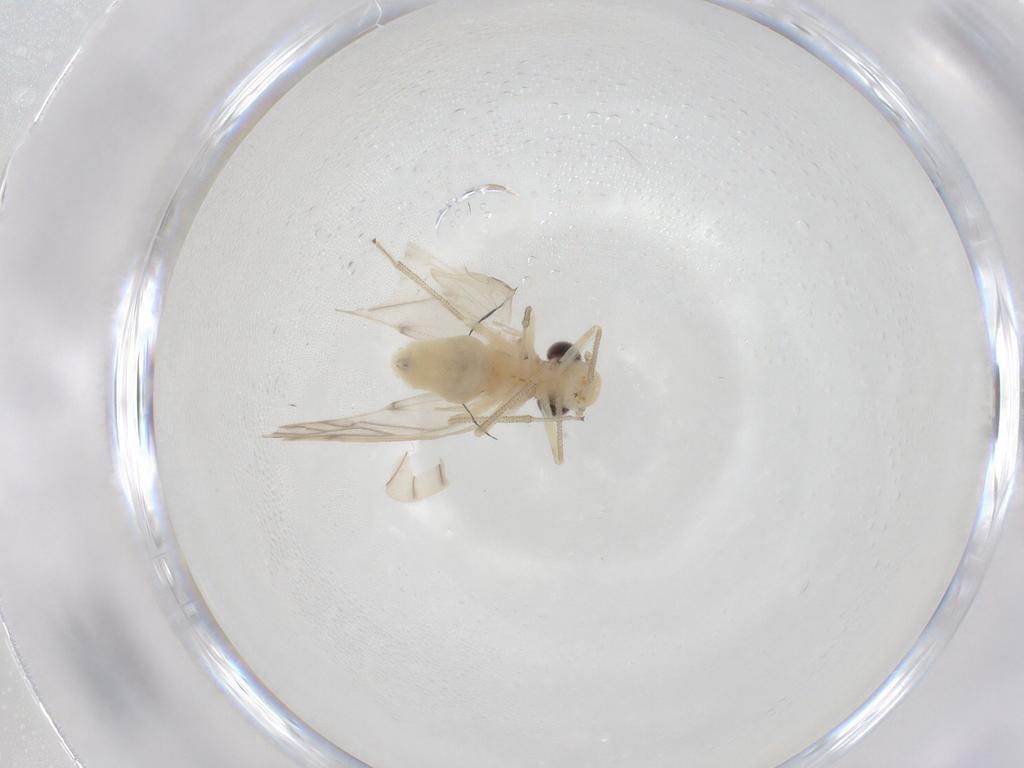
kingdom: Animalia
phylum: Arthropoda
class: Insecta
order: Psocodea
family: Caeciliusidae
